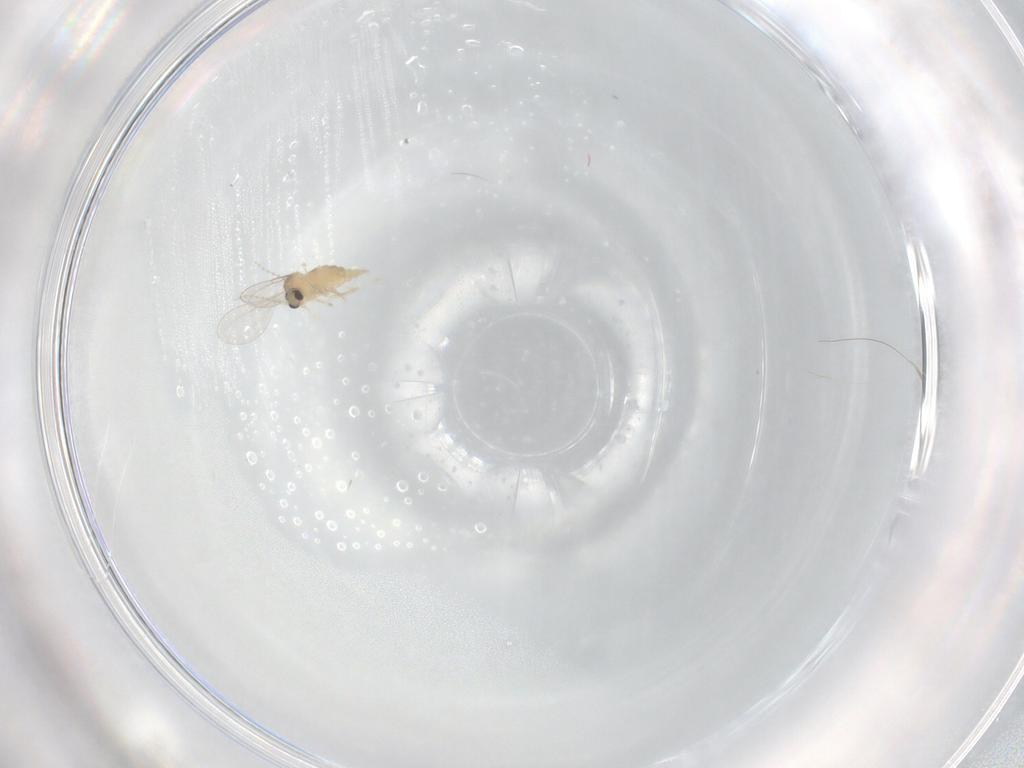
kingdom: Animalia
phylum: Arthropoda
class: Insecta
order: Diptera
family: Cecidomyiidae
